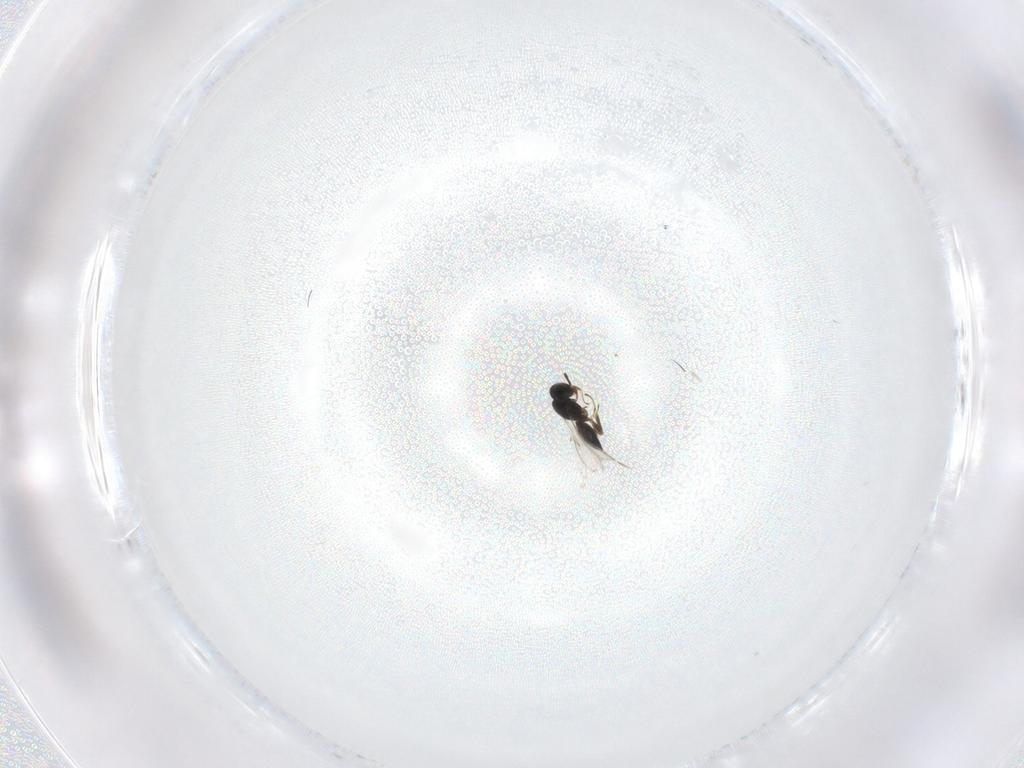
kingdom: Animalia
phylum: Arthropoda
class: Insecta
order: Hymenoptera
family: Scelionidae
